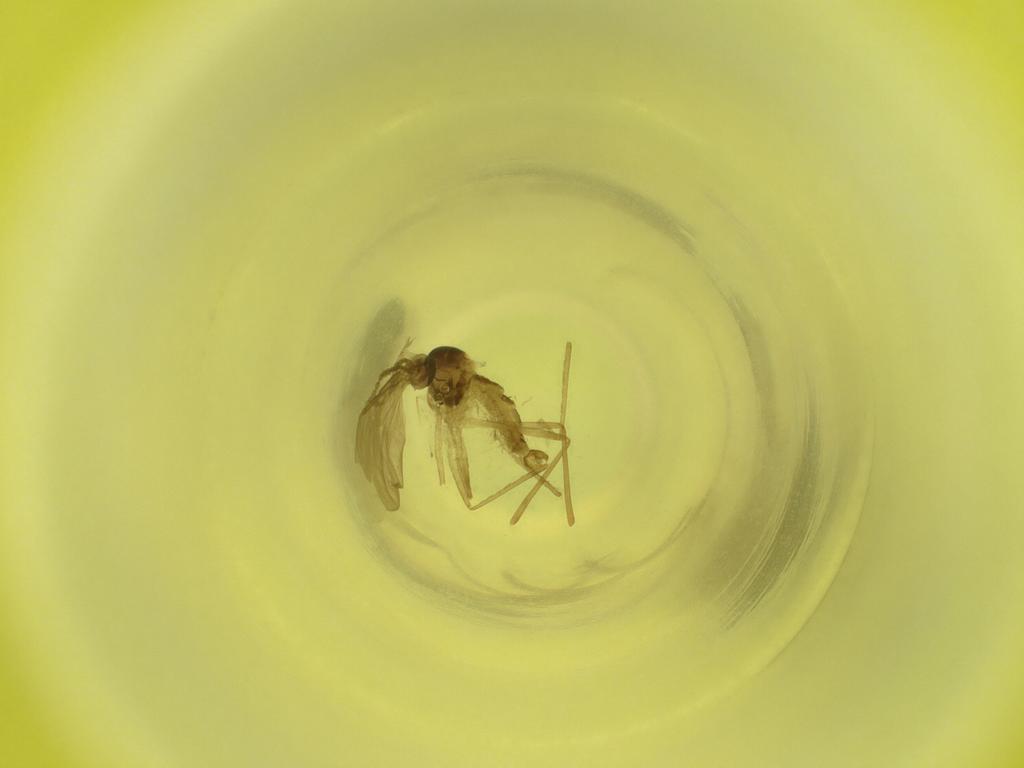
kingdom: Animalia
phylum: Arthropoda
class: Insecta
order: Diptera
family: Cecidomyiidae
